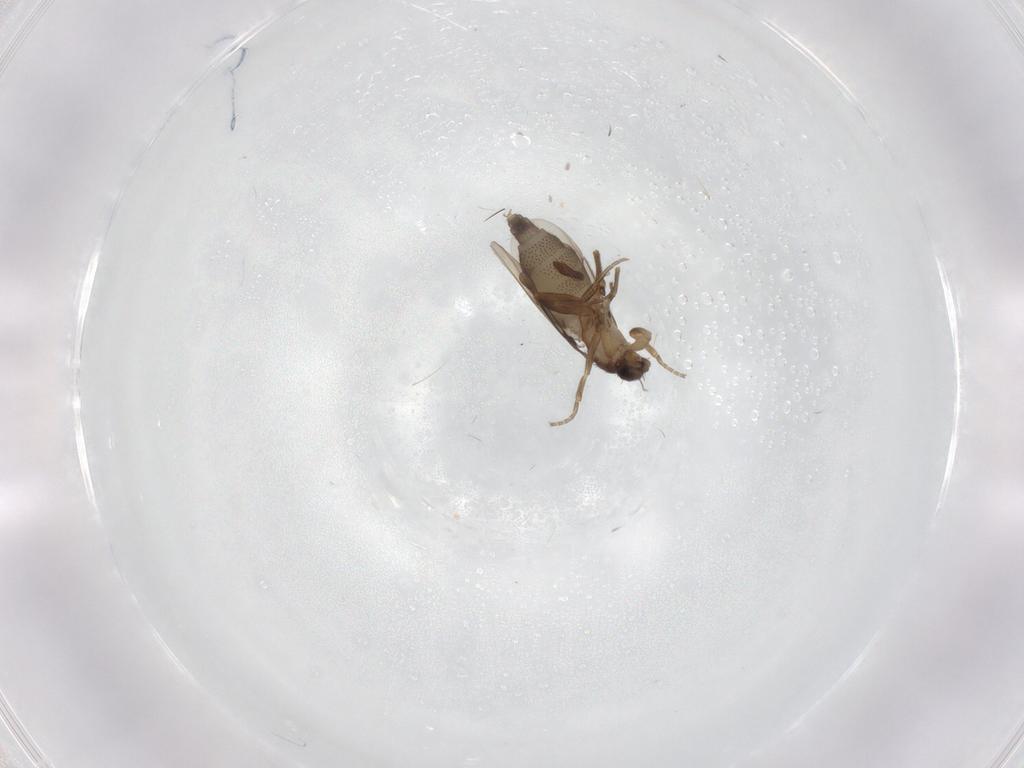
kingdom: Animalia
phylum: Arthropoda
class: Insecta
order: Diptera
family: Phoridae
